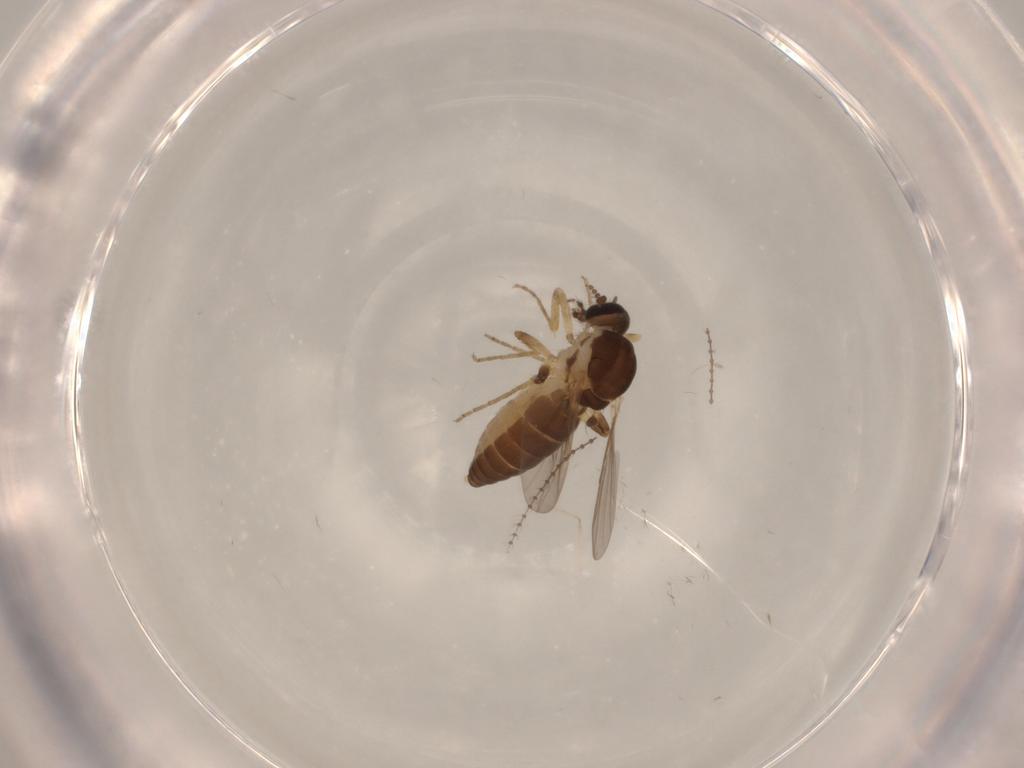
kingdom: Animalia
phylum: Arthropoda
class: Insecta
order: Diptera
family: Ceratopogonidae
